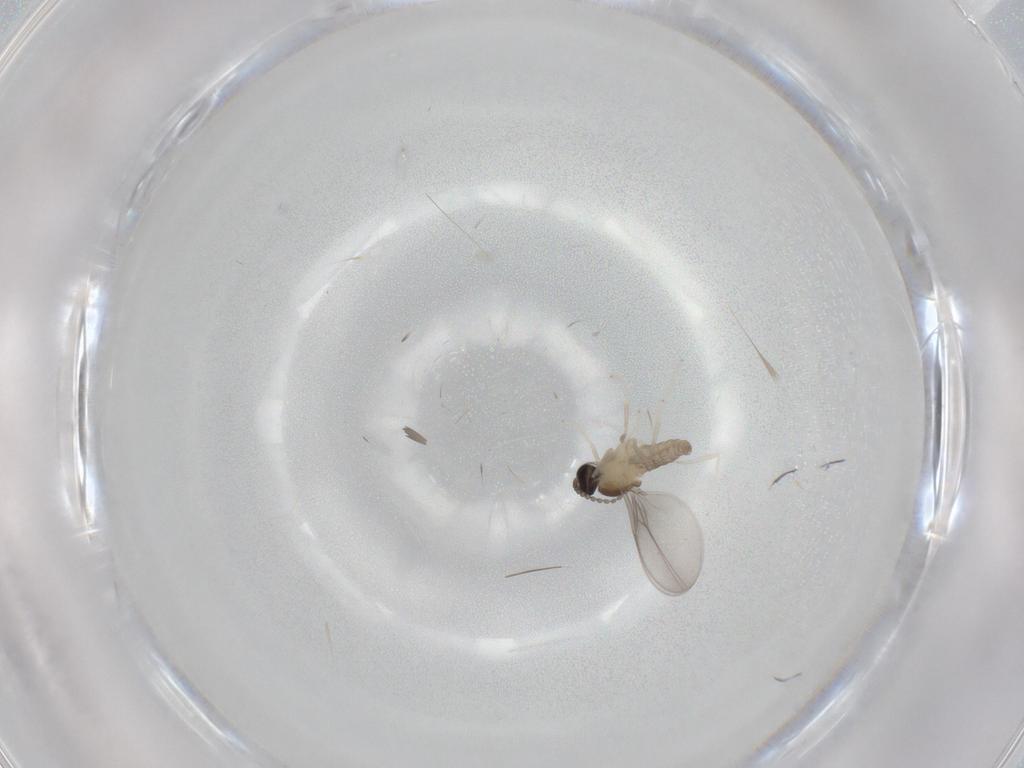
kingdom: Animalia
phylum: Arthropoda
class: Insecta
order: Diptera
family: Cecidomyiidae
